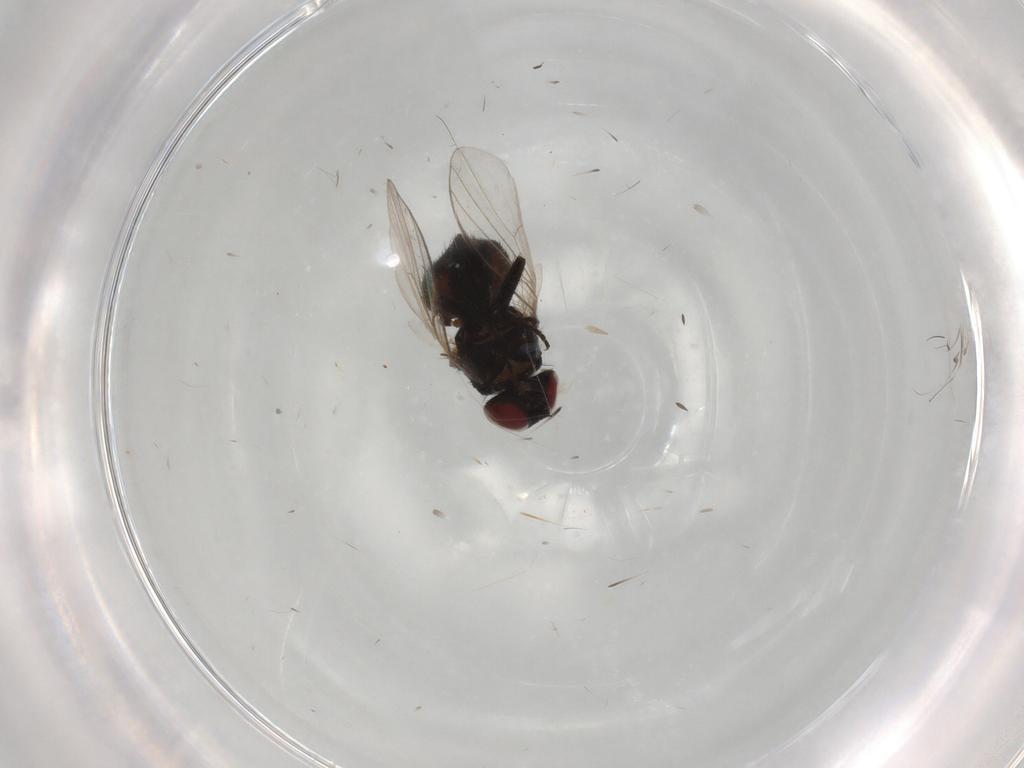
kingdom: Animalia
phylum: Arthropoda
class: Insecta
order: Diptera
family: Agromyzidae
